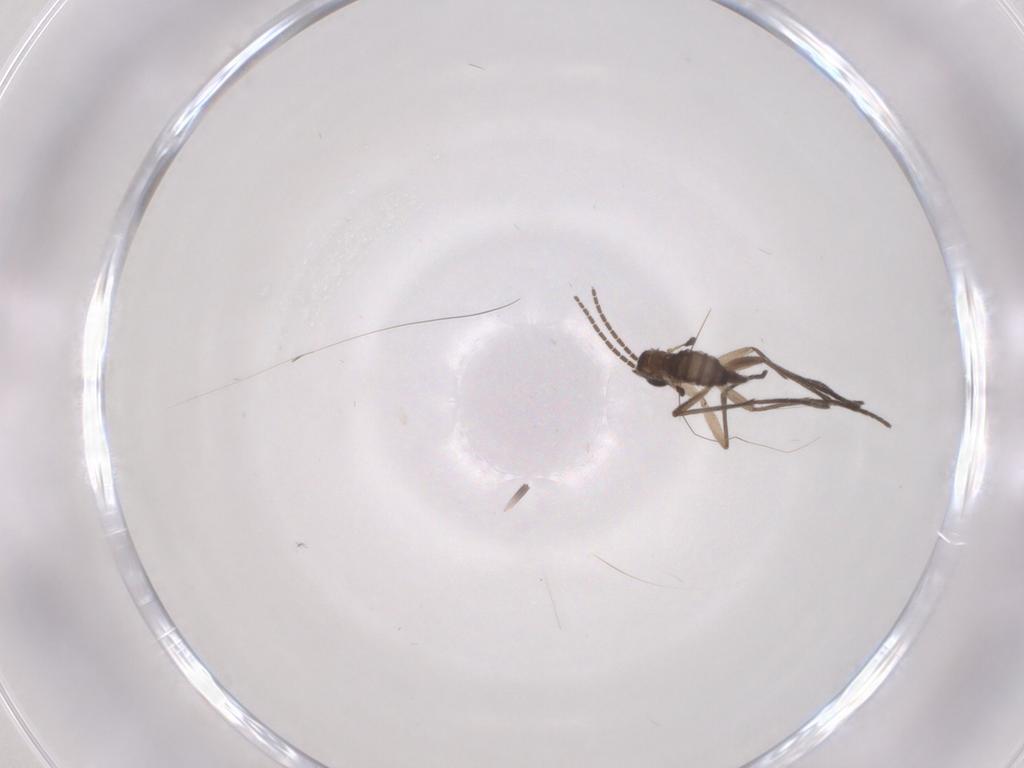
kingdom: Animalia
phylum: Arthropoda
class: Insecta
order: Diptera
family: Sciaridae
